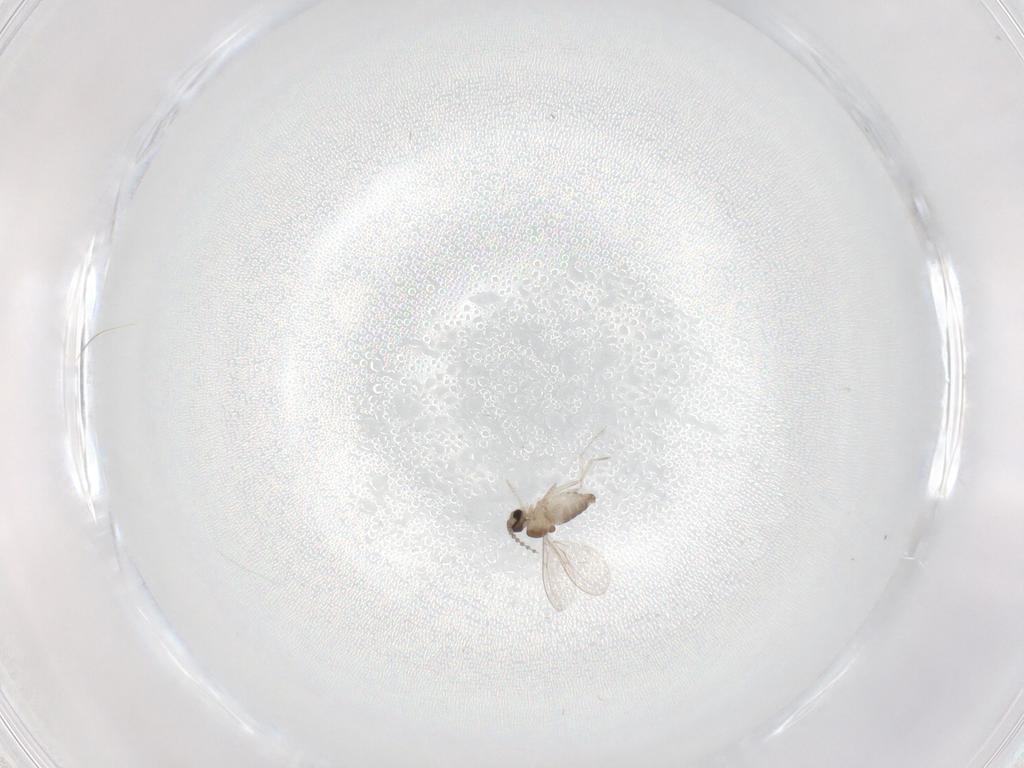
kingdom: Animalia
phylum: Arthropoda
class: Insecta
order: Diptera
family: Cecidomyiidae
